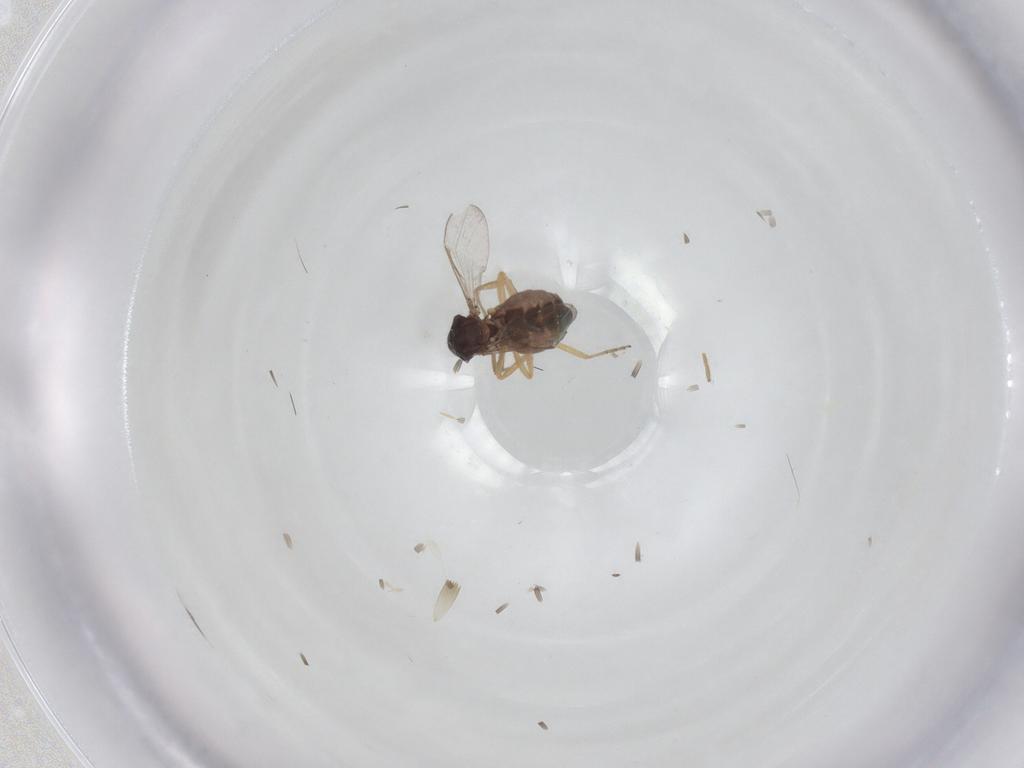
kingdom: Animalia
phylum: Arthropoda
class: Insecta
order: Diptera
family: Ceratopogonidae
